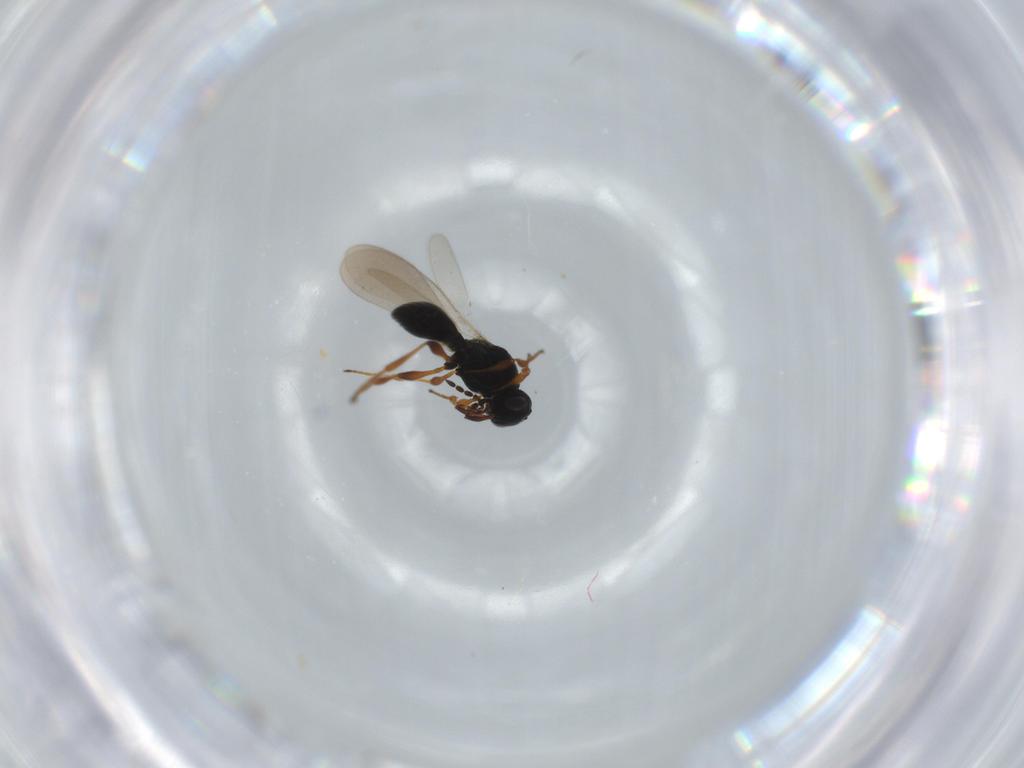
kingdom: Animalia
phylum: Arthropoda
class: Insecta
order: Hymenoptera
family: Platygastridae
